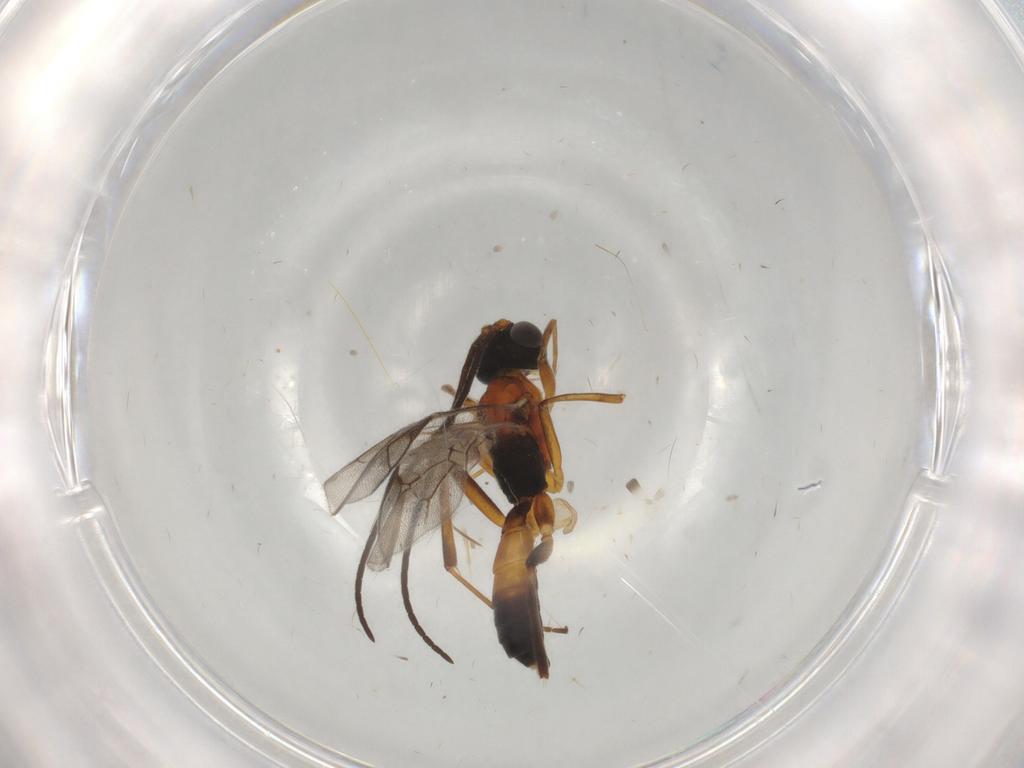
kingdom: Animalia
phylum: Arthropoda
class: Insecta
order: Hymenoptera
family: Ichneumonidae
